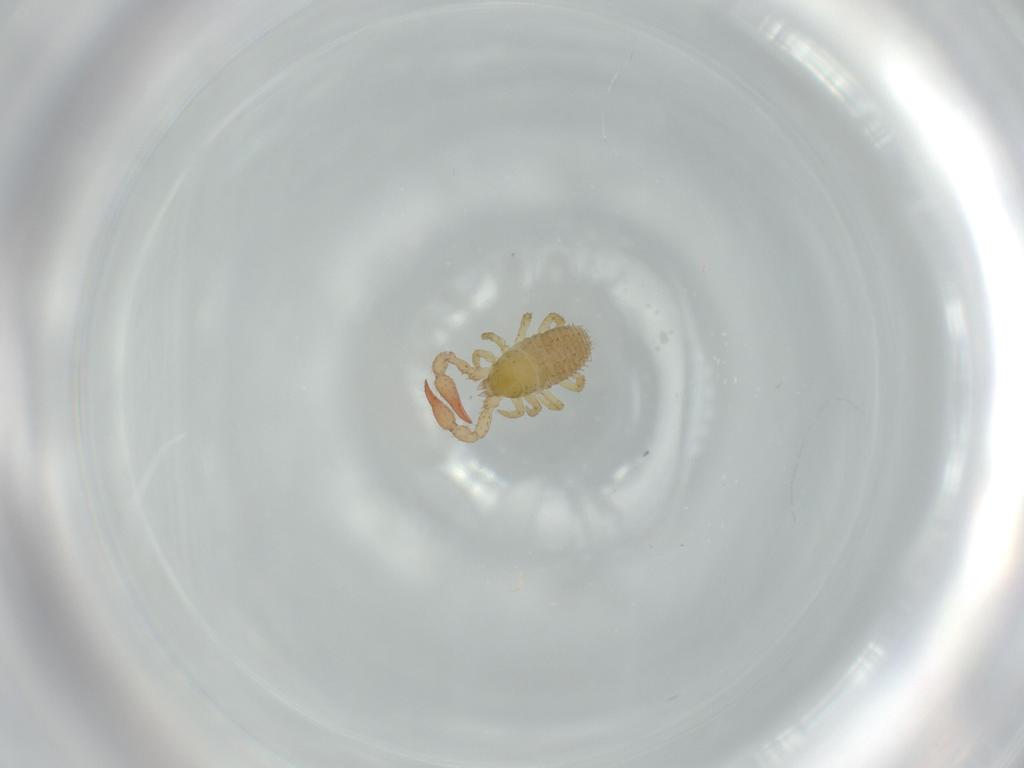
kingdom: Animalia
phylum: Arthropoda
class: Arachnida
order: Pseudoscorpiones
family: Chernetidae
